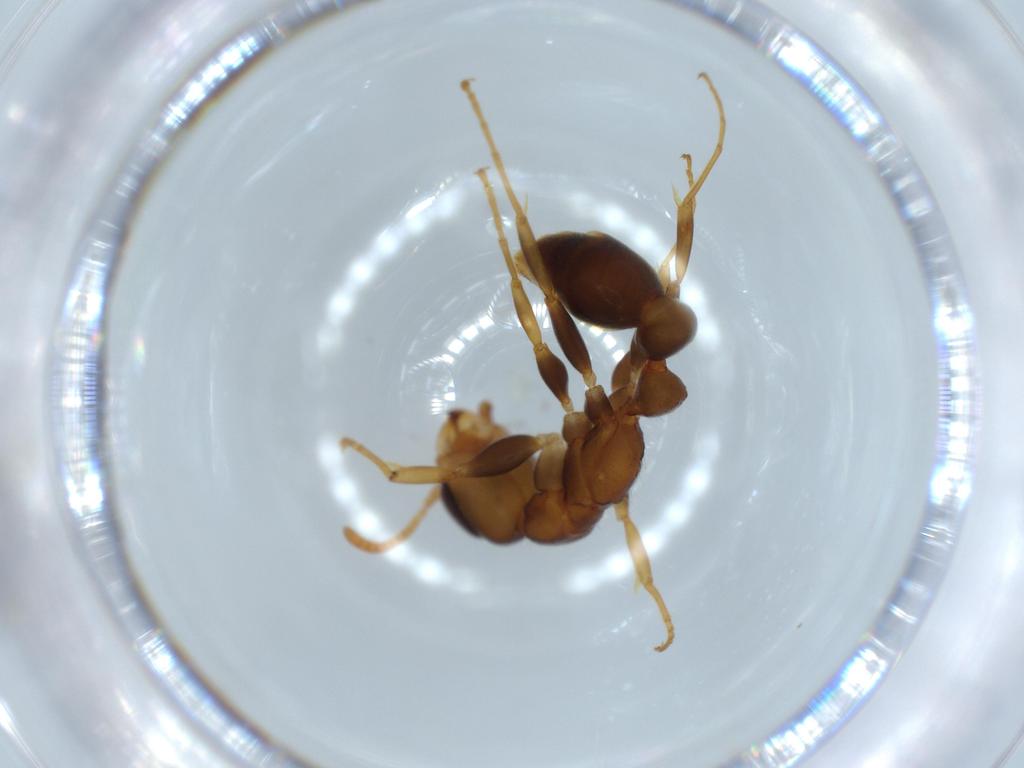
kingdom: Animalia
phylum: Arthropoda
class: Insecta
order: Hymenoptera
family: Formicidae
